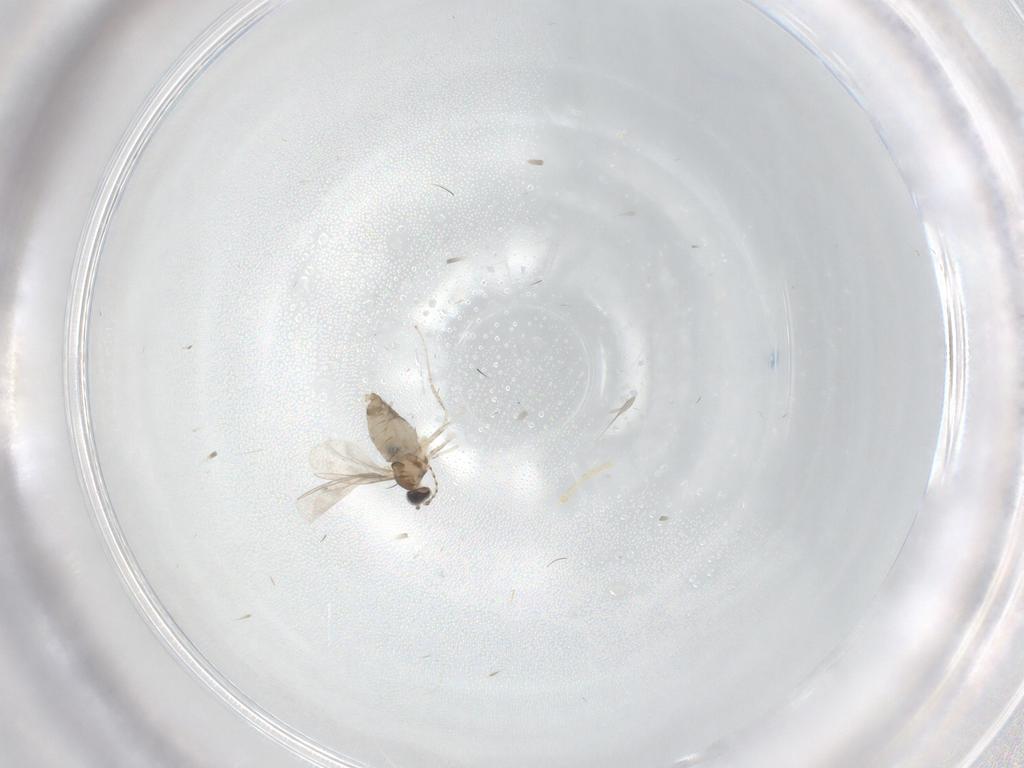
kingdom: Animalia
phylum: Arthropoda
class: Insecta
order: Diptera
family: Cecidomyiidae
